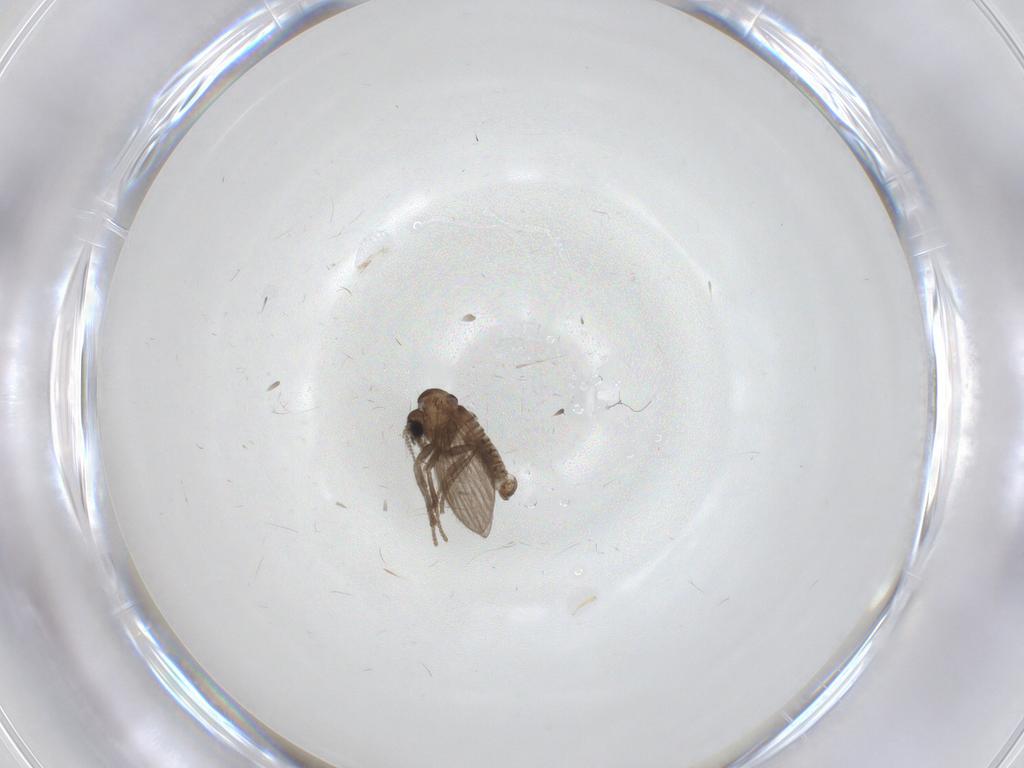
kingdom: Animalia
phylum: Arthropoda
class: Insecta
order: Diptera
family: Psychodidae
